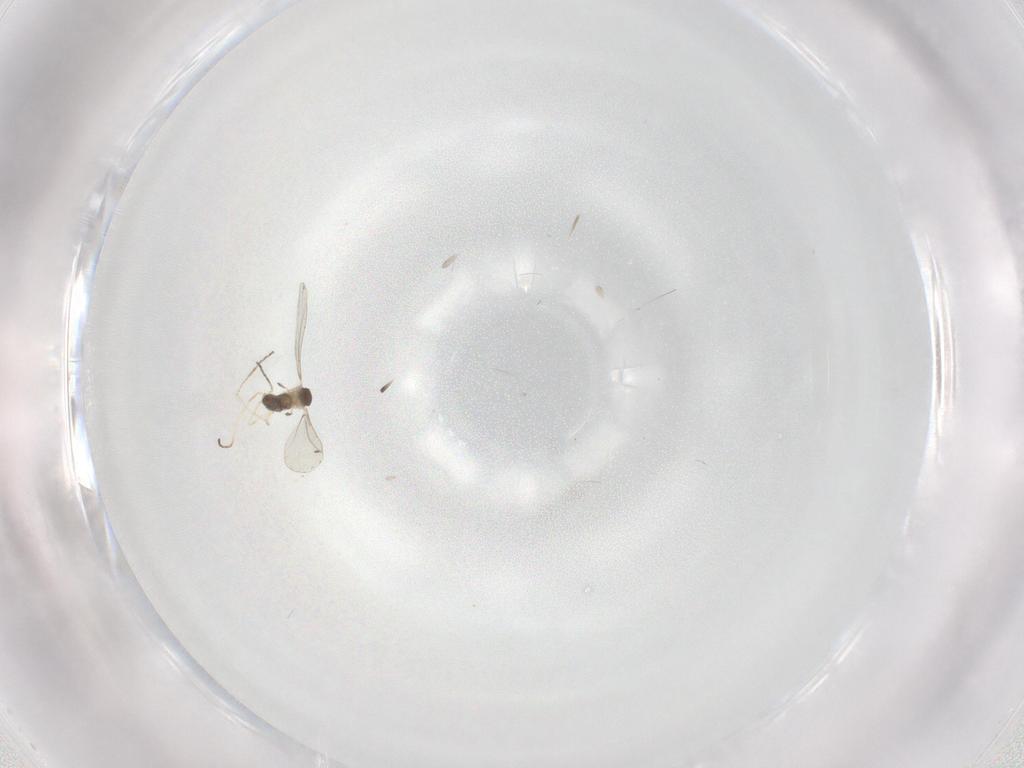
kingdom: Animalia
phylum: Arthropoda
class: Insecta
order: Diptera
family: Cecidomyiidae
